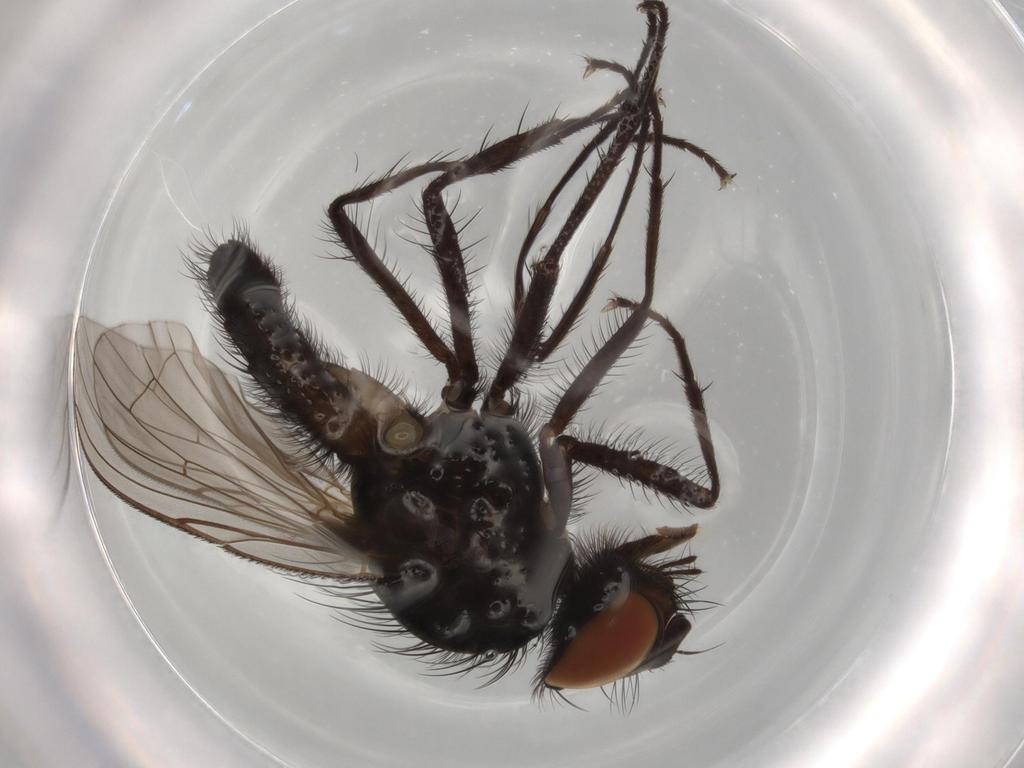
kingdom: Animalia
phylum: Arthropoda
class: Insecta
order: Diptera
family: Anthomyiidae
